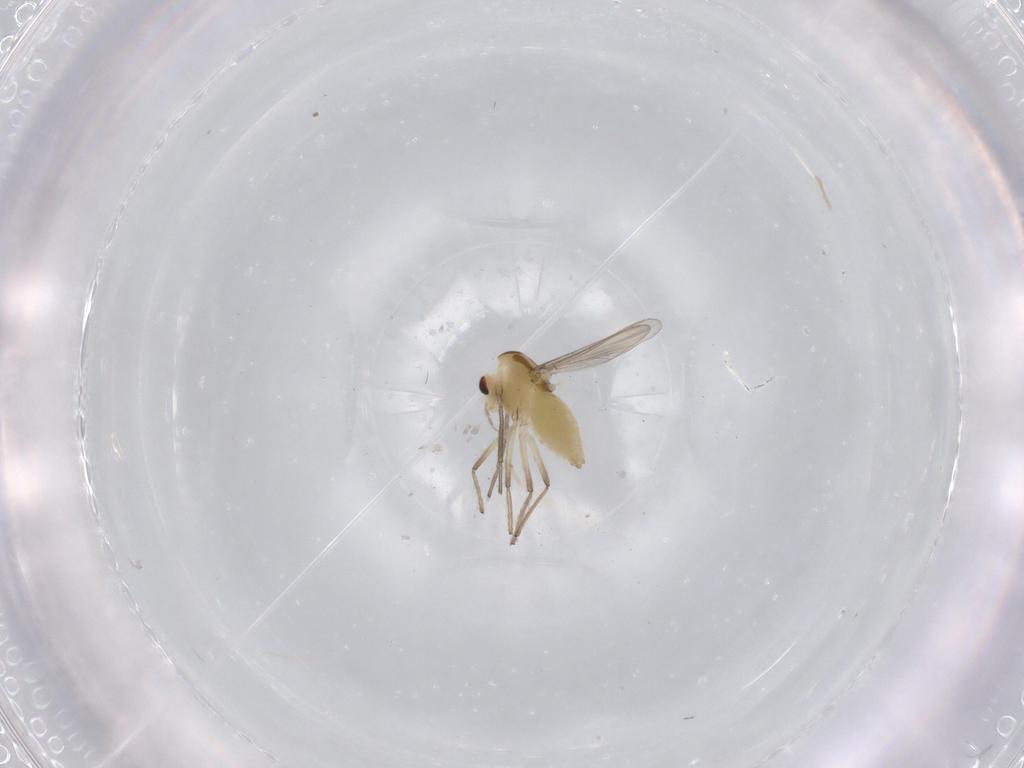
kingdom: Animalia
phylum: Arthropoda
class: Insecta
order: Diptera
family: Chironomidae
